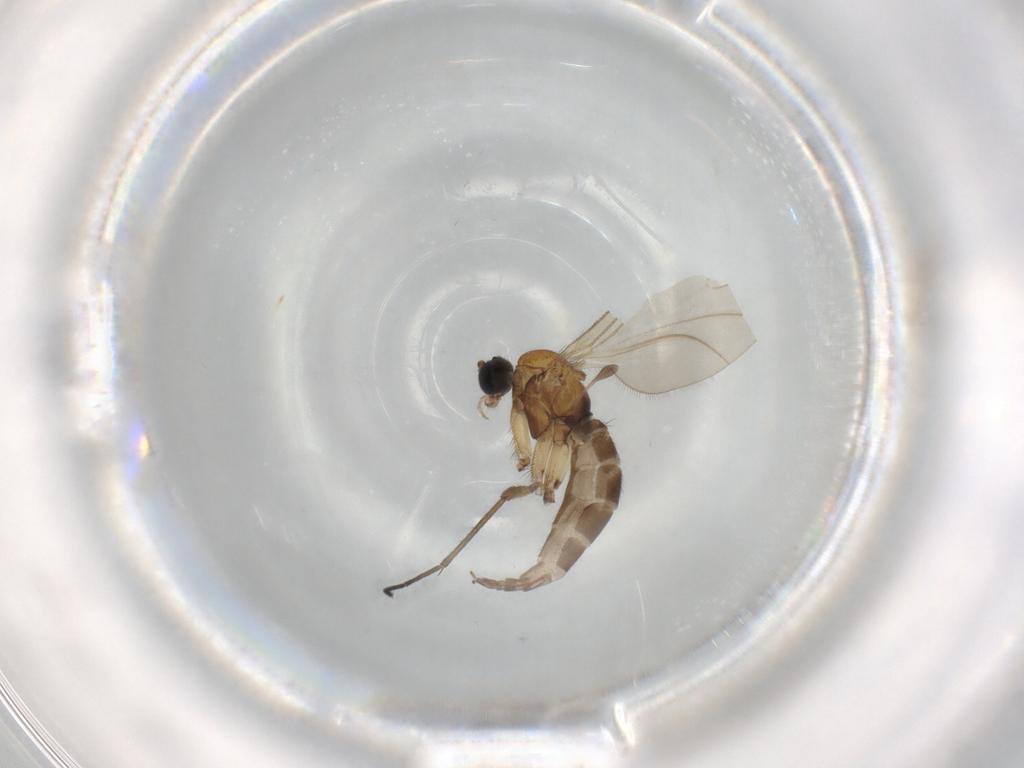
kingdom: Animalia
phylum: Arthropoda
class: Insecta
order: Diptera
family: Sciaridae
